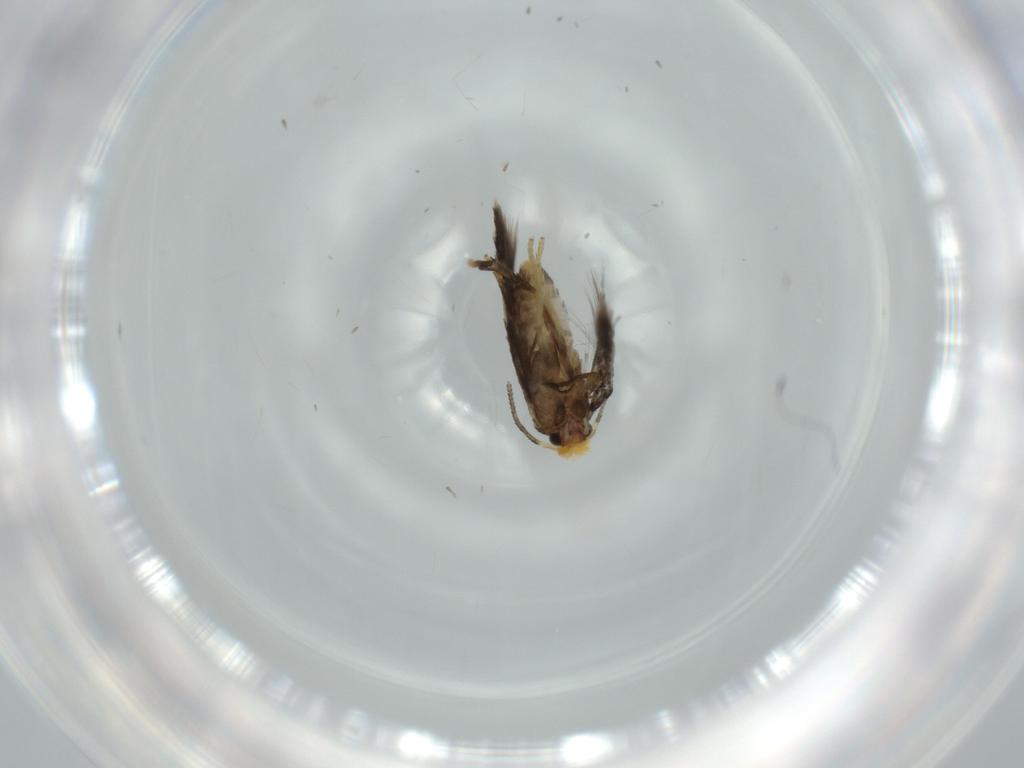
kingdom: Animalia
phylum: Arthropoda
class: Insecta
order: Lepidoptera
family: Nepticulidae
